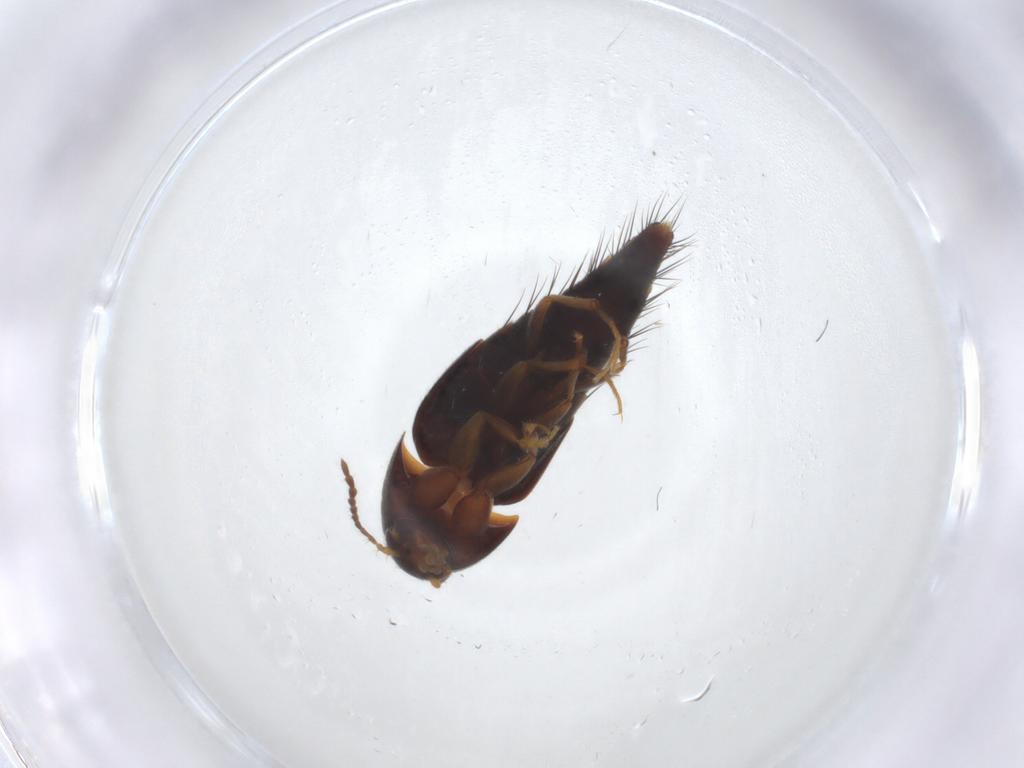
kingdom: Animalia
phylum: Arthropoda
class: Insecta
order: Coleoptera
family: Staphylinidae
